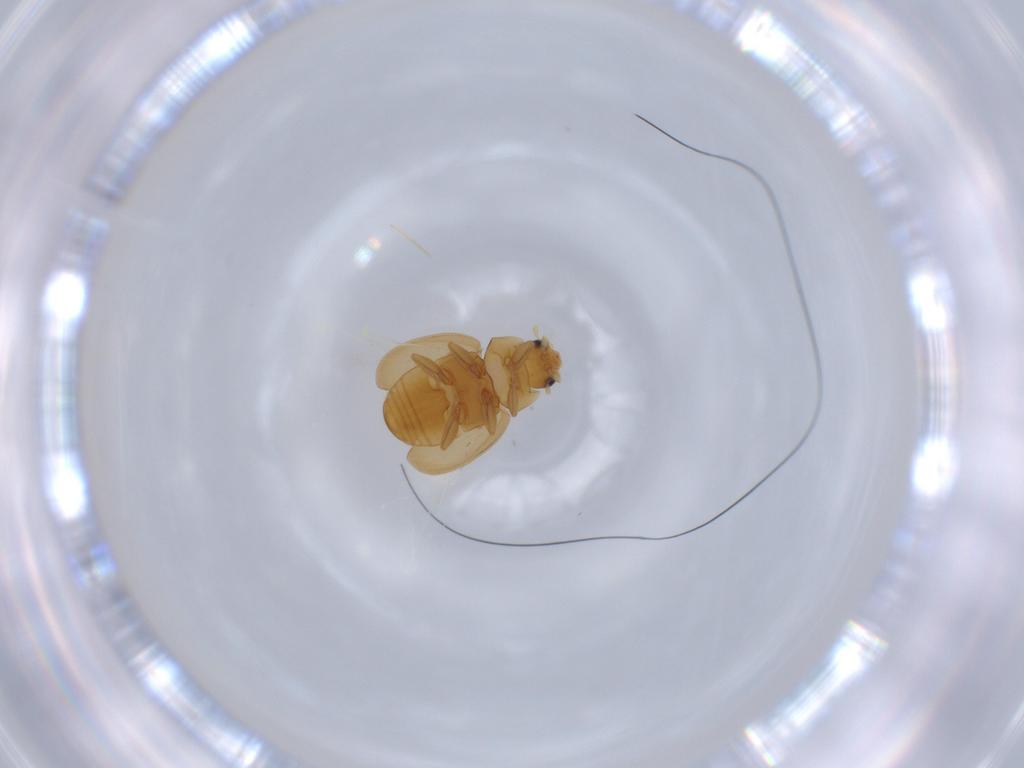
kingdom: Animalia
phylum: Arthropoda
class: Insecta
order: Coleoptera
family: Coccinellidae
